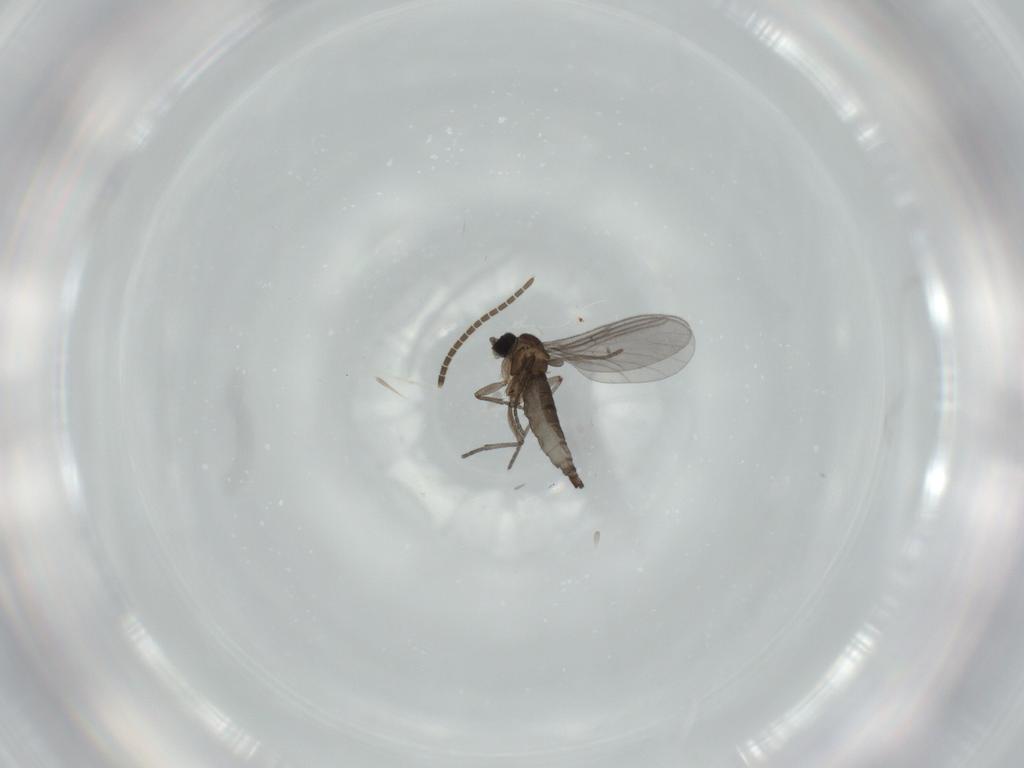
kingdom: Animalia
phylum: Arthropoda
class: Insecta
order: Diptera
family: Sciaridae
